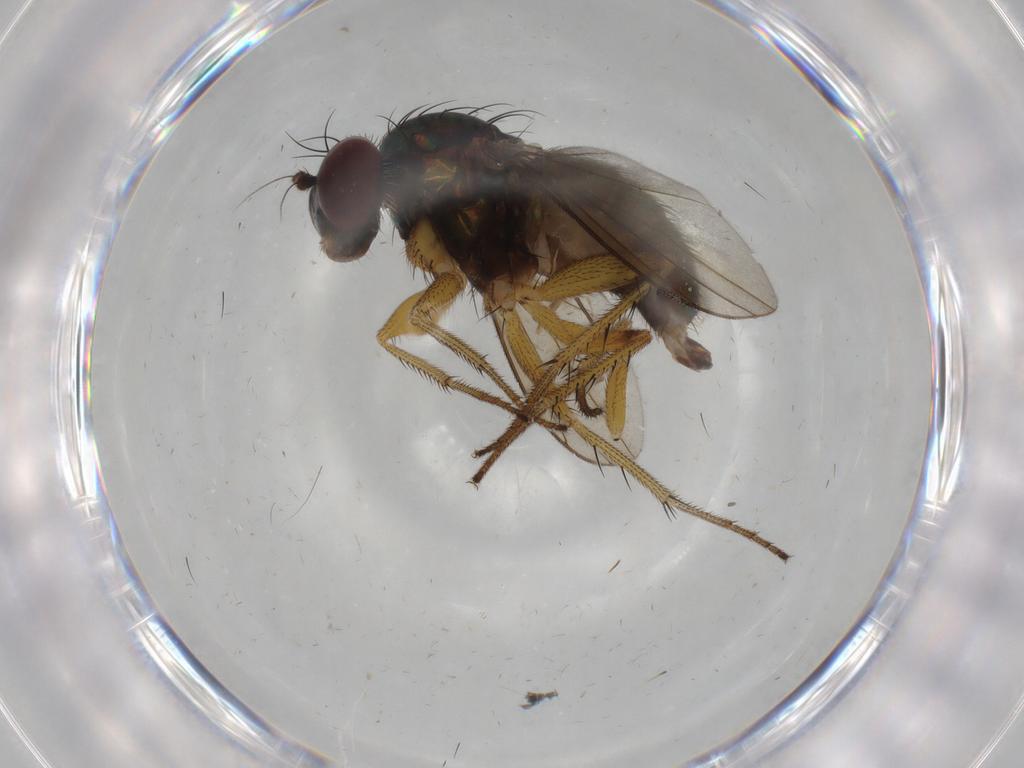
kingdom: Animalia
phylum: Arthropoda
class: Insecta
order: Diptera
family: Dolichopodidae
